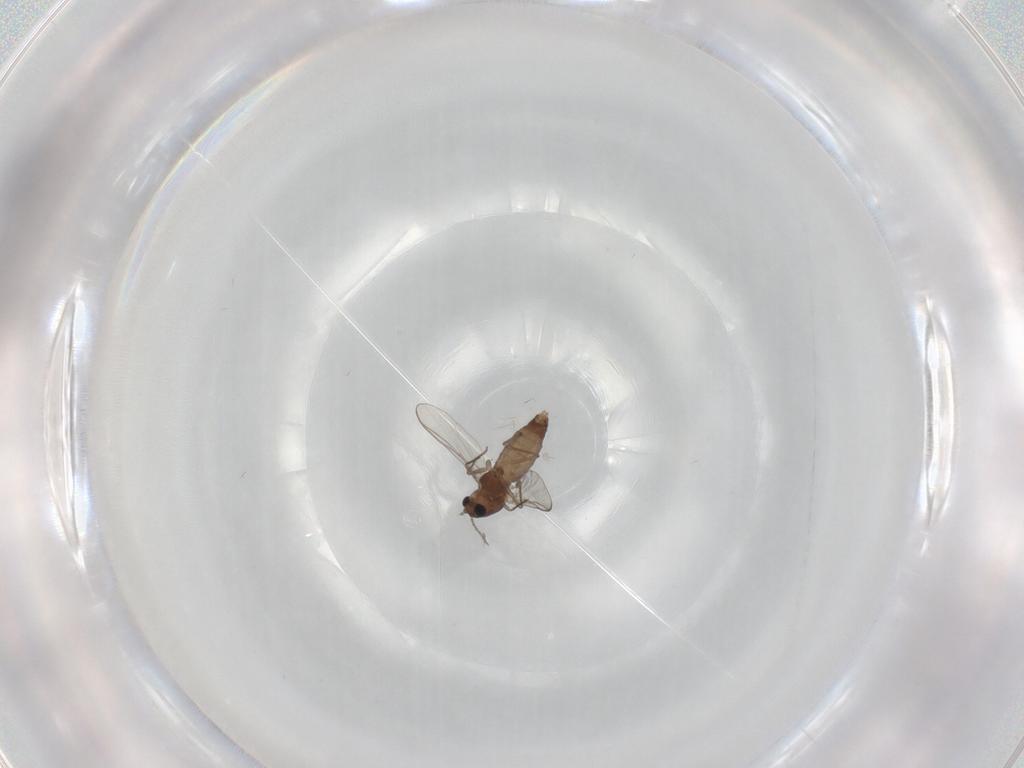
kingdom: Animalia
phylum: Arthropoda
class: Insecta
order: Diptera
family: Chironomidae
